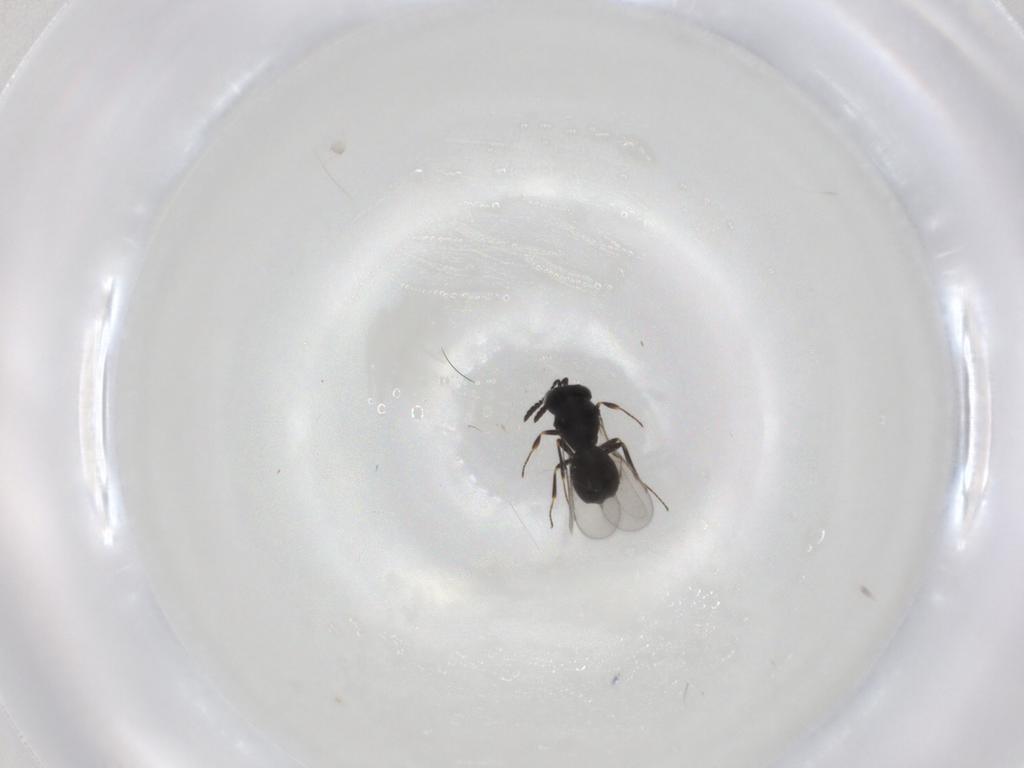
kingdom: Animalia
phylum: Arthropoda
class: Insecta
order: Hymenoptera
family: Scelionidae
